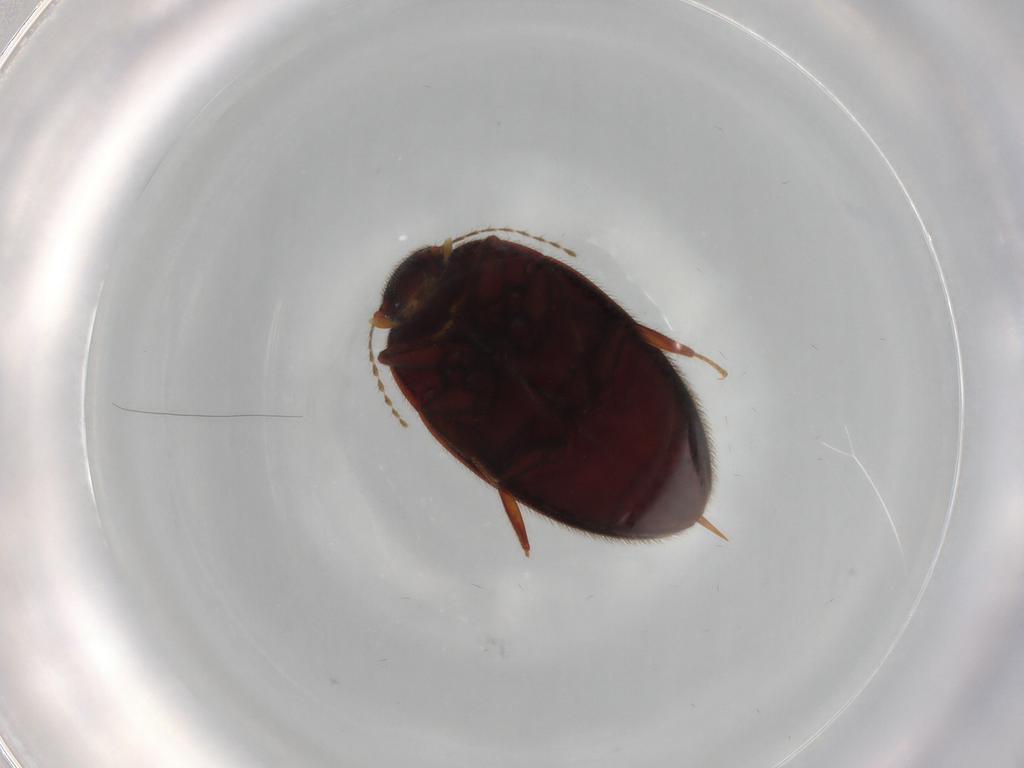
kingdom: Animalia
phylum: Arthropoda
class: Insecta
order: Coleoptera
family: Limnichidae
